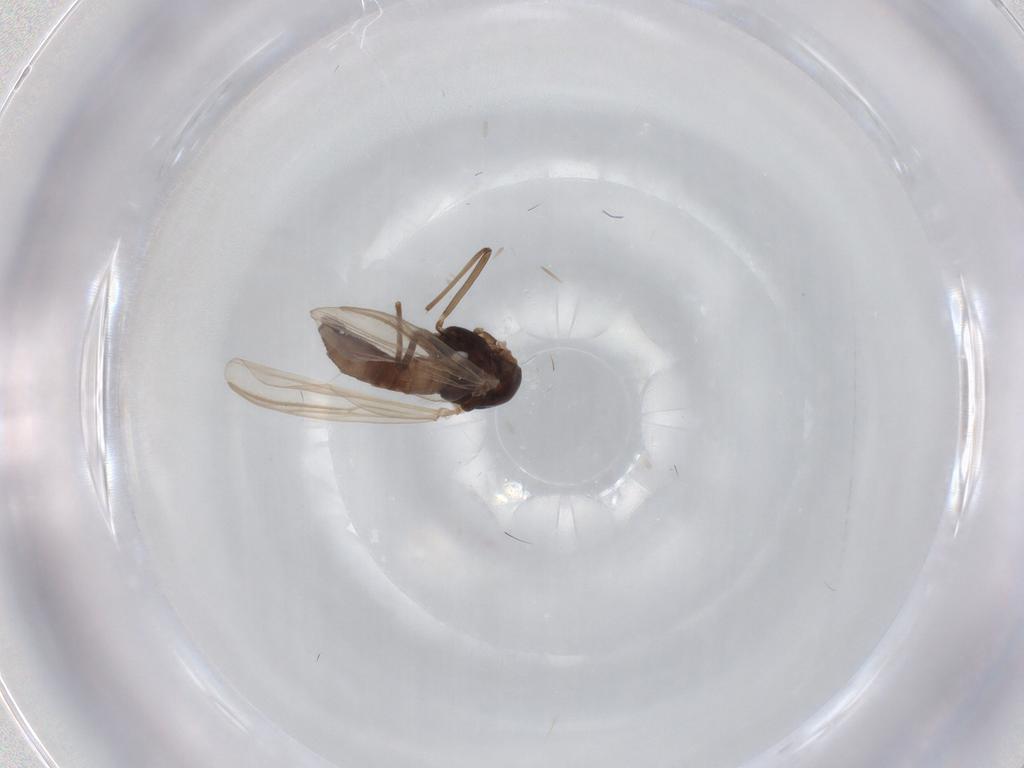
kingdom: Animalia
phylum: Arthropoda
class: Insecta
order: Diptera
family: Chironomidae
